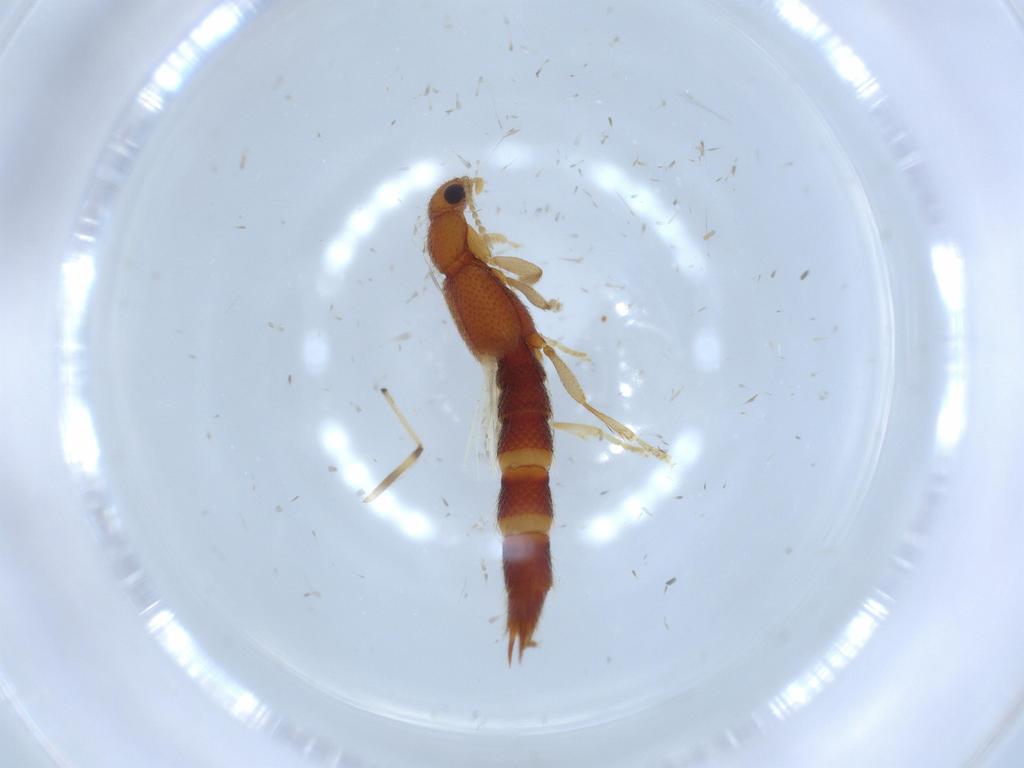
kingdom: Animalia
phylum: Arthropoda
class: Insecta
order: Coleoptera
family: Staphylinidae
